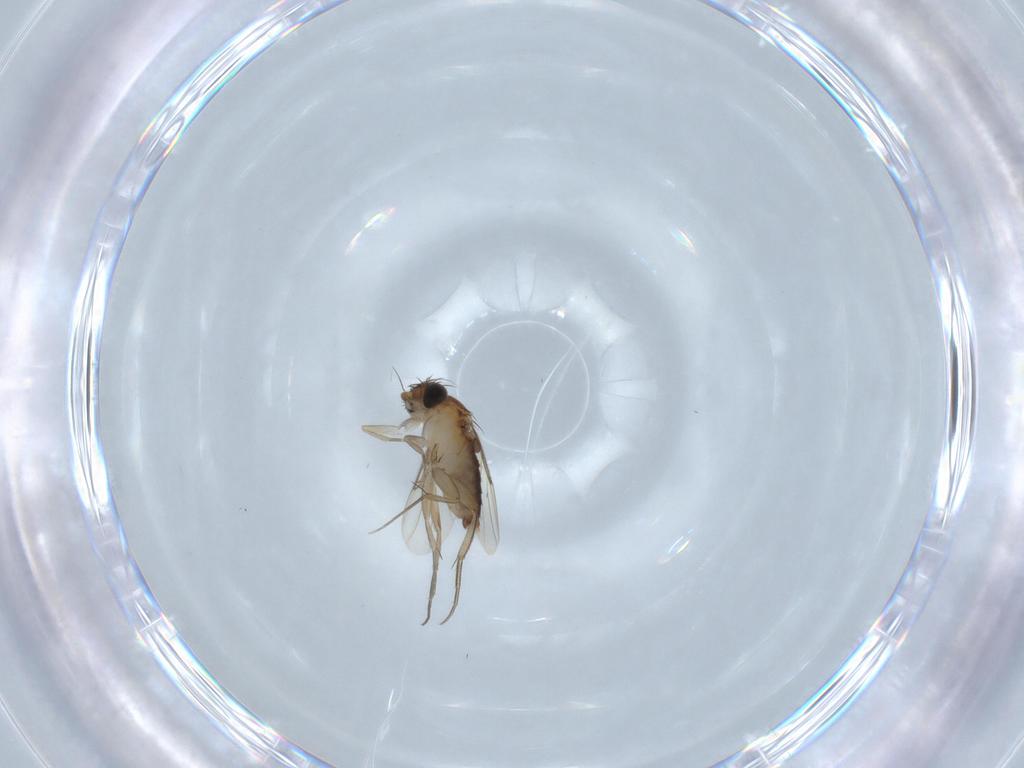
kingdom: Animalia
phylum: Arthropoda
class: Insecta
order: Diptera
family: Phoridae
